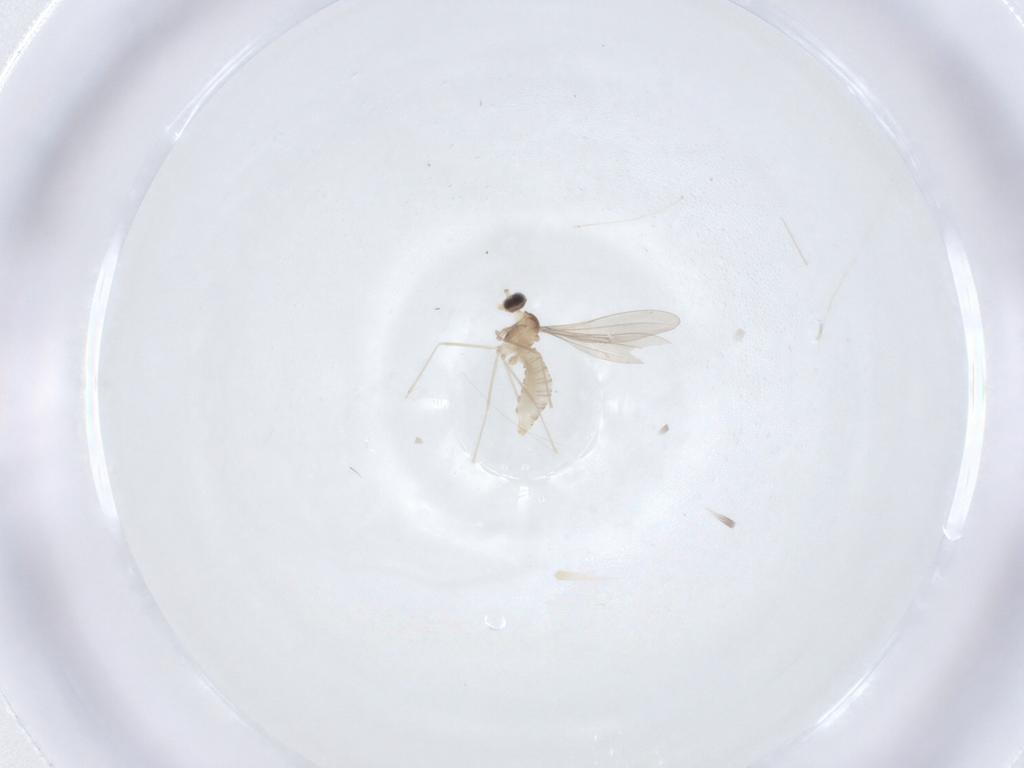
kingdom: Animalia
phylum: Arthropoda
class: Insecta
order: Diptera
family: Cecidomyiidae
